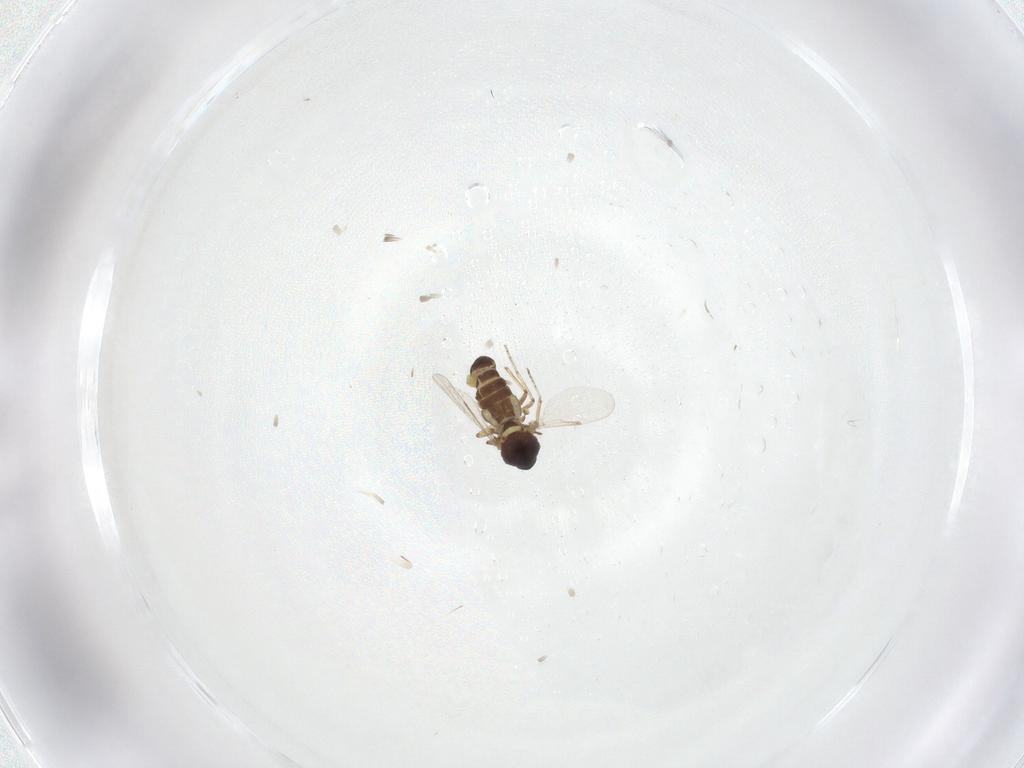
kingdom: Animalia
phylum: Arthropoda
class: Insecta
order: Diptera
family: Ceratopogonidae
